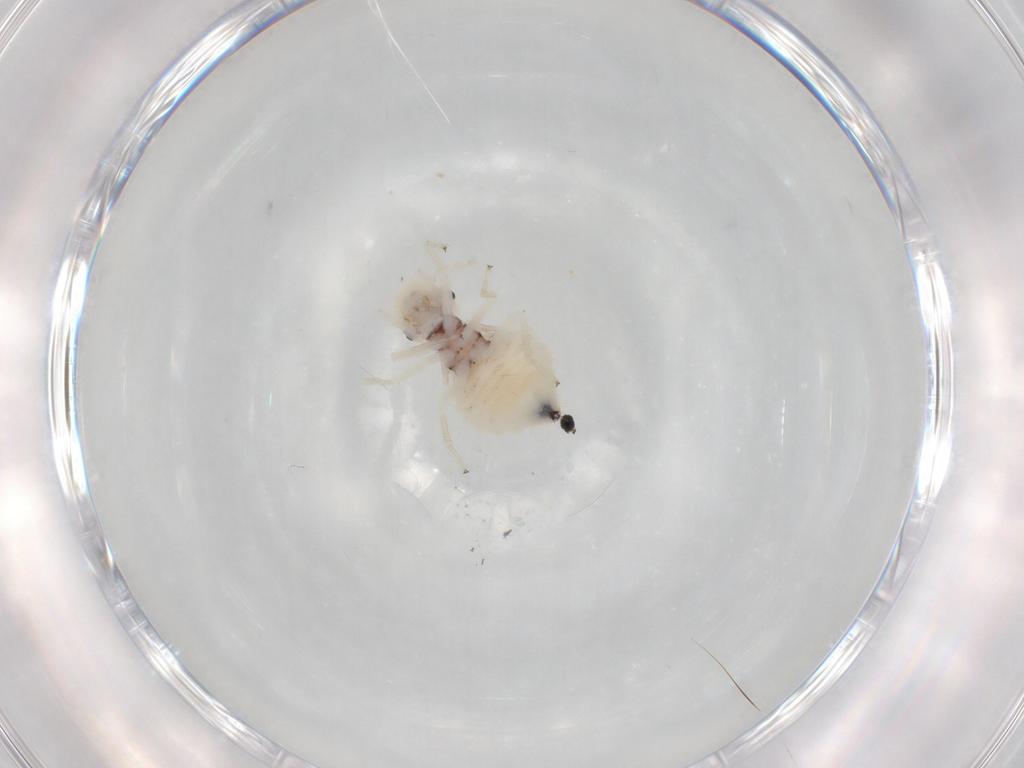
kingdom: Animalia
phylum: Arthropoda
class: Insecta
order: Psocodea
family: Amphipsocidae
